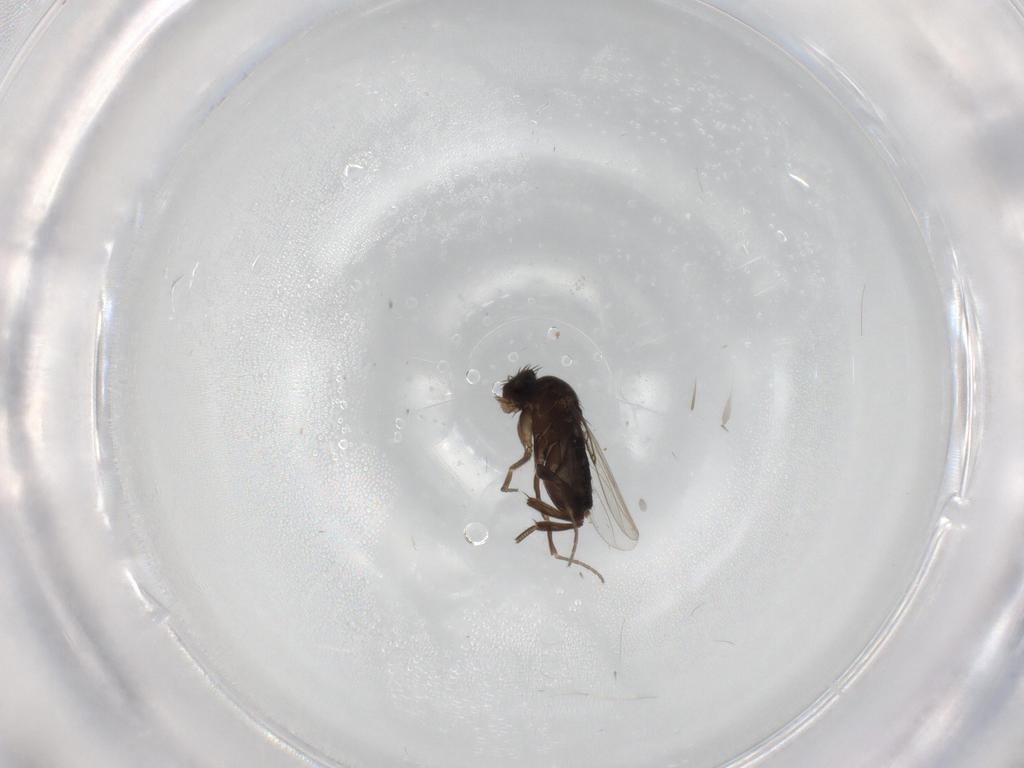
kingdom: Animalia
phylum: Arthropoda
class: Insecta
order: Diptera
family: Phoridae
